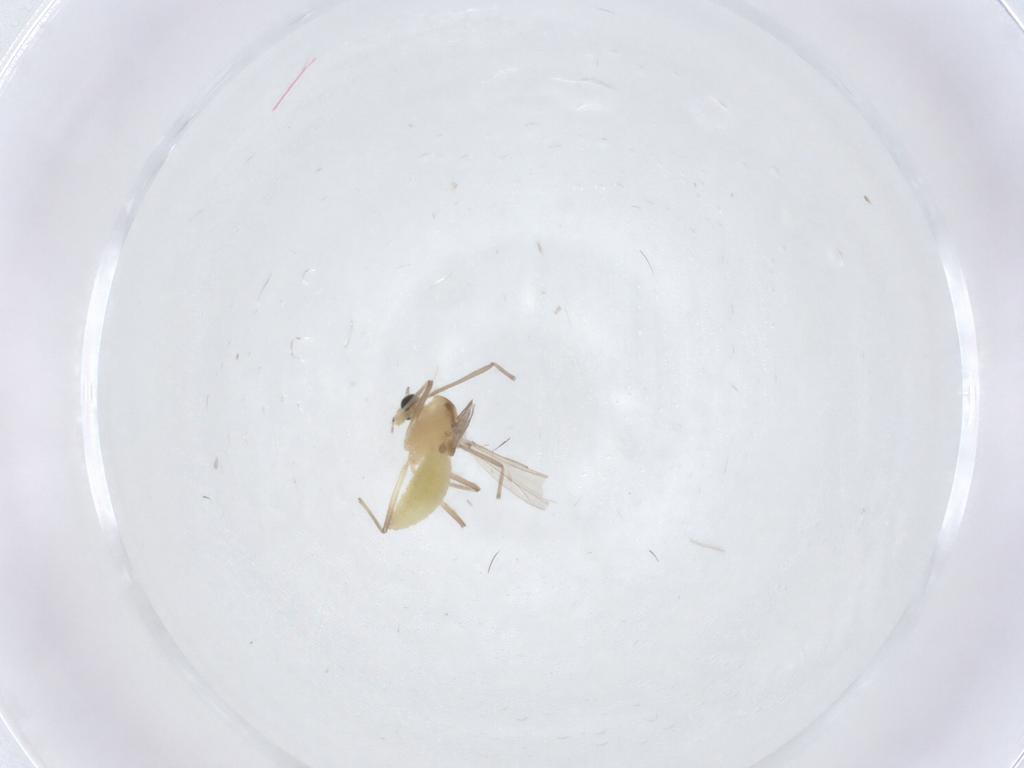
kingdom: Animalia
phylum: Arthropoda
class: Insecta
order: Diptera
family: Chironomidae
